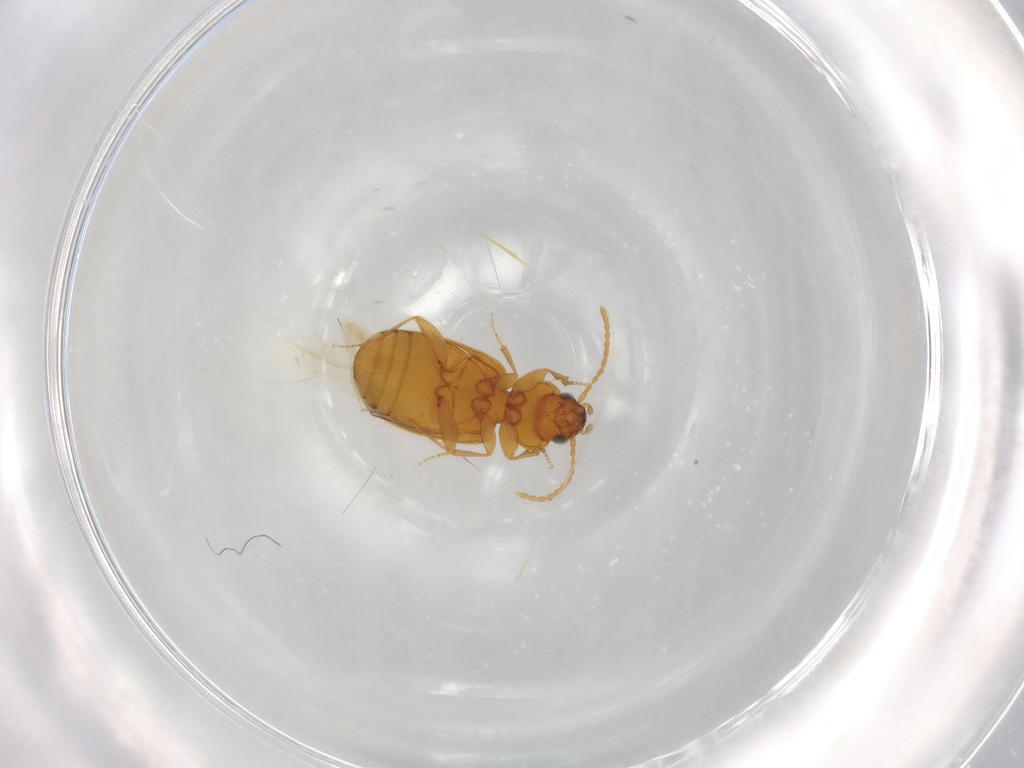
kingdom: Animalia
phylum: Arthropoda
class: Insecta
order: Coleoptera
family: Carabidae
